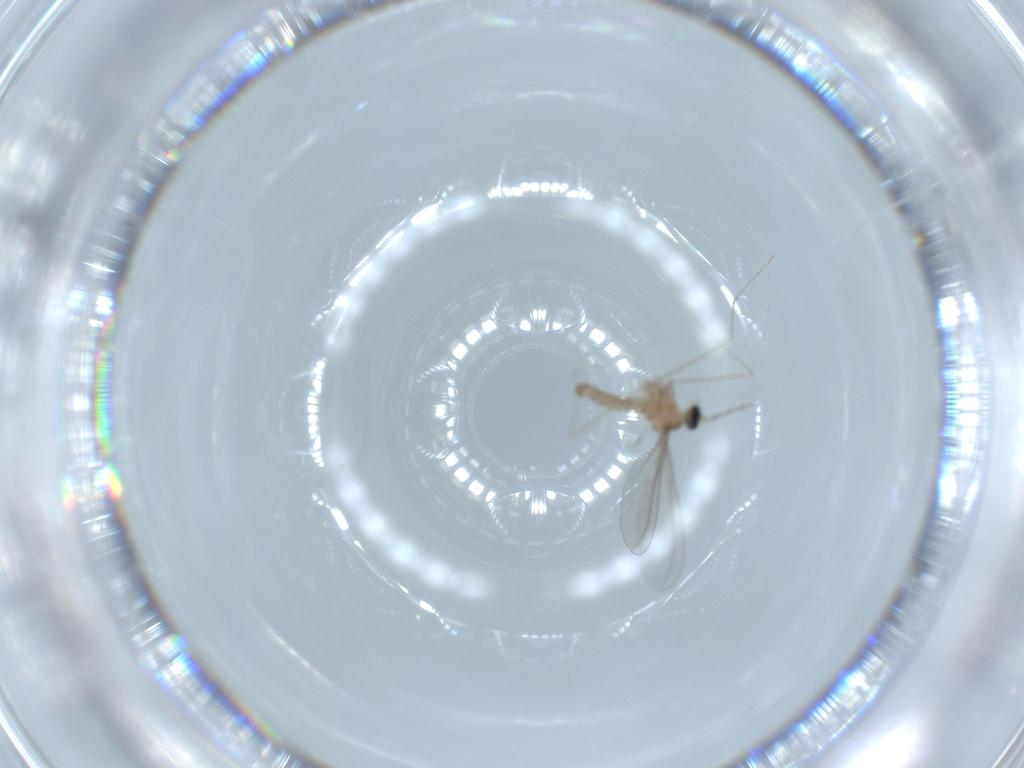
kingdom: Animalia
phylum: Arthropoda
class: Insecta
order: Diptera
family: Cecidomyiidae
